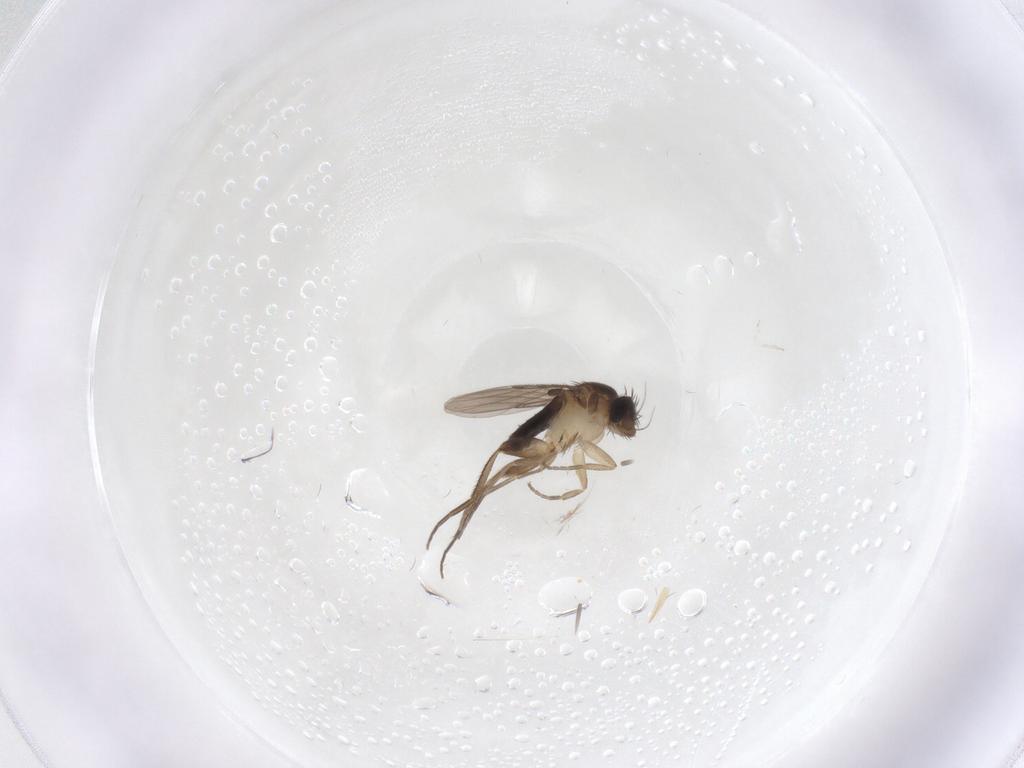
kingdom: Animalia
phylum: Arthropoda
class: Insecta
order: Diptera
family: Phoridae
